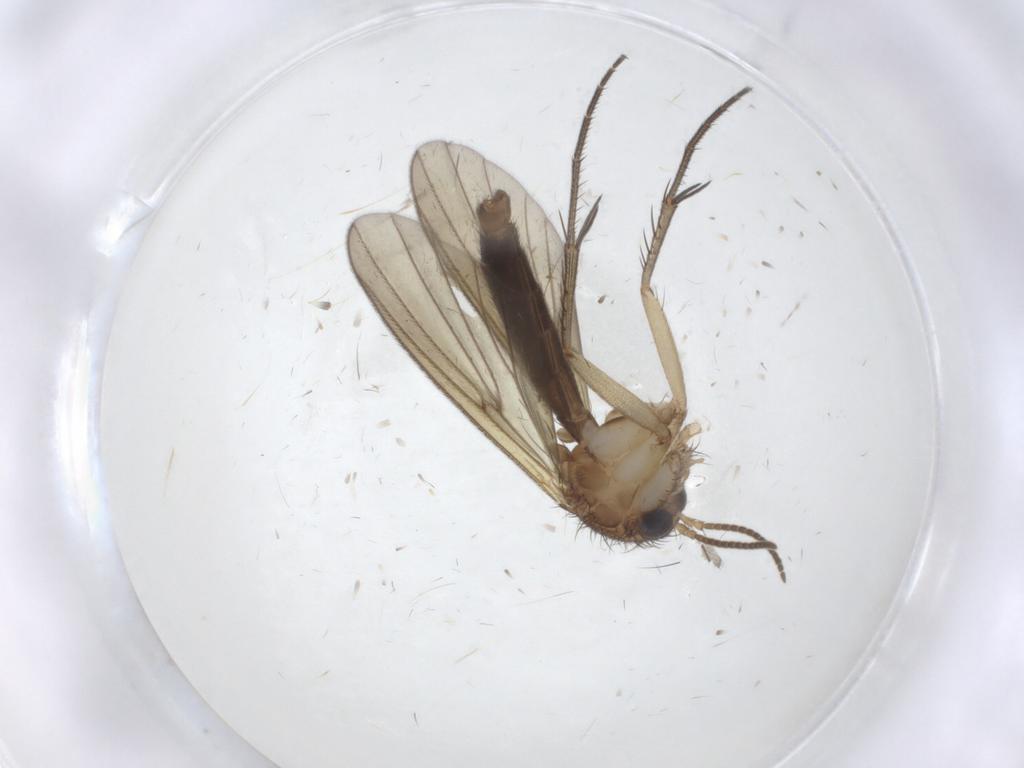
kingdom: Animalia
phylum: Arthropoda
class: Insecta
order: Diptera
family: Mycetophilidae
